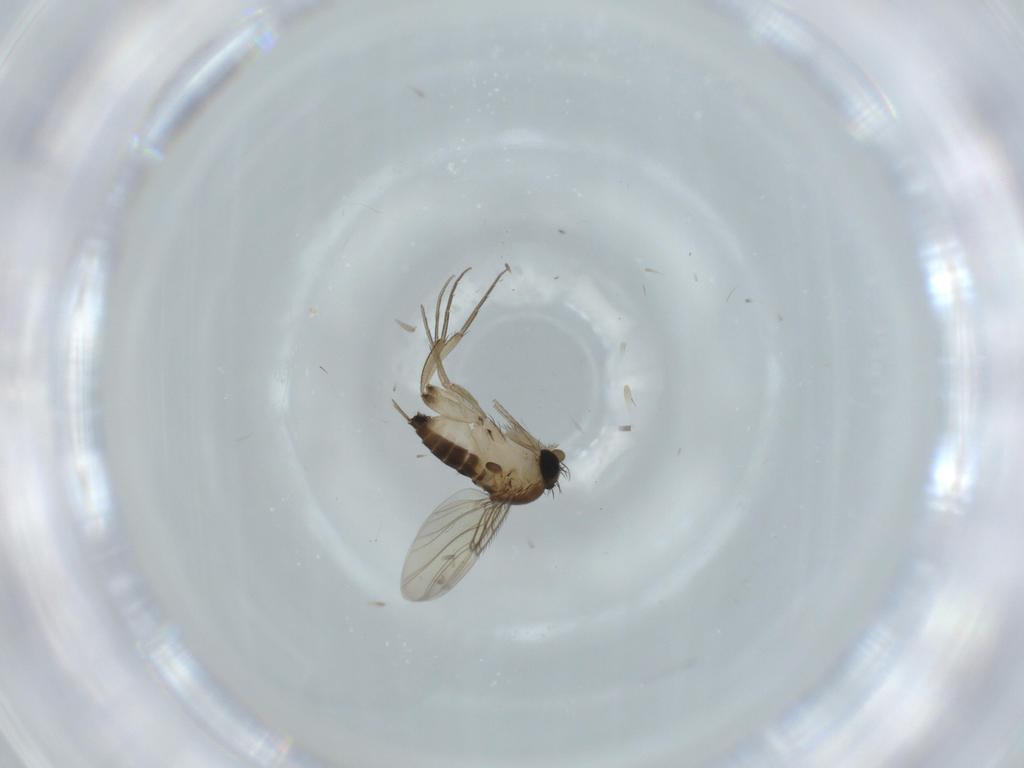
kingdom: Animalia
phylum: Arthropoda
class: Insecta
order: Diptera
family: Phoridae
